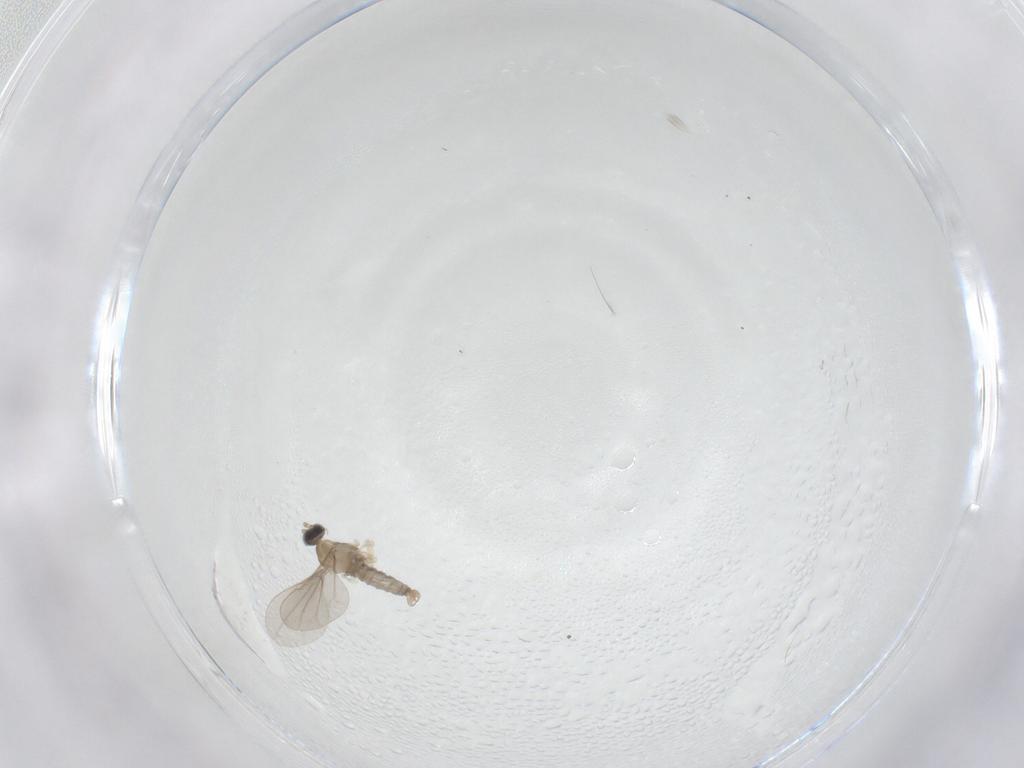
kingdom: Animalia
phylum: Arthropoda
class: Insecta
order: Diptera
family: Cecidomyiidae
